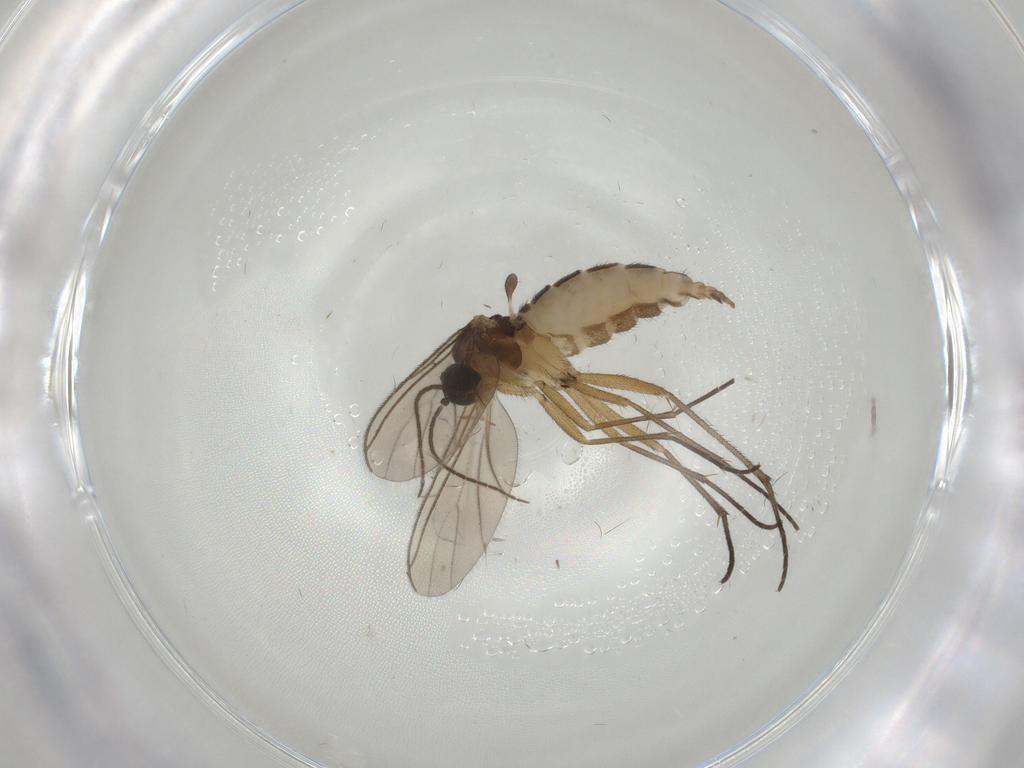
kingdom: Animalia
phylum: Arthropoda
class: Insecta
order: Diptera
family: Sciaridae
